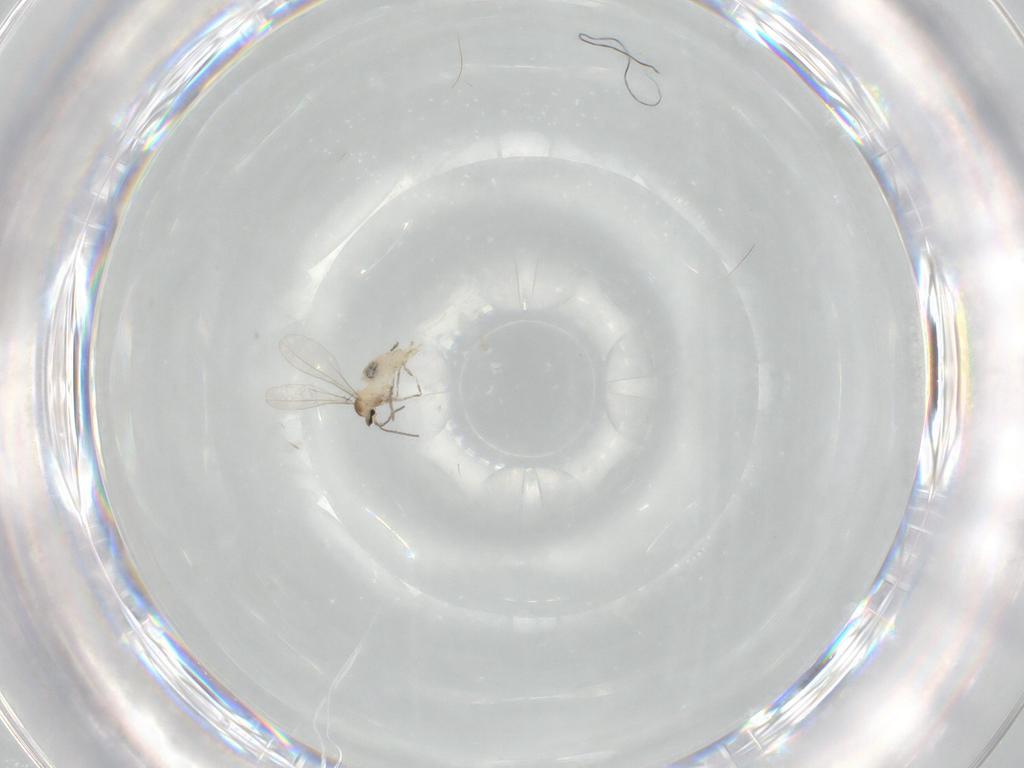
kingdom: Animalia
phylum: Arthropoda
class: Insecta
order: Diptera
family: Cecidomyiidae
